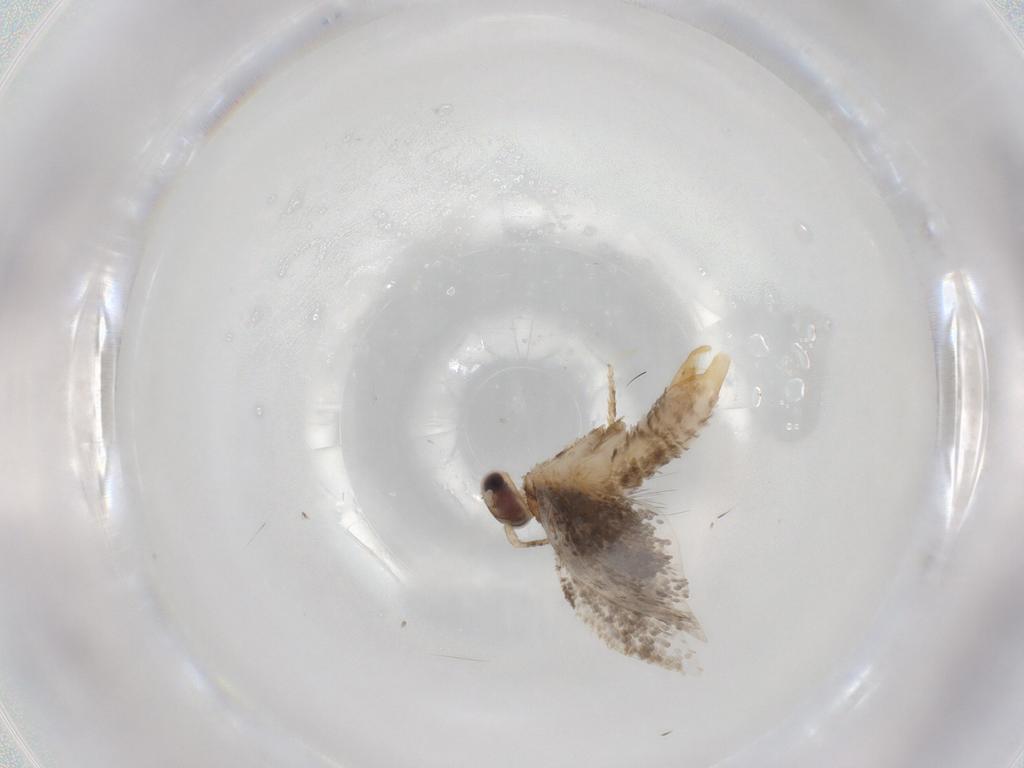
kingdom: Animalia
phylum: Arthropoda
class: Insecta
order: Lepidoptera
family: Tineidae
